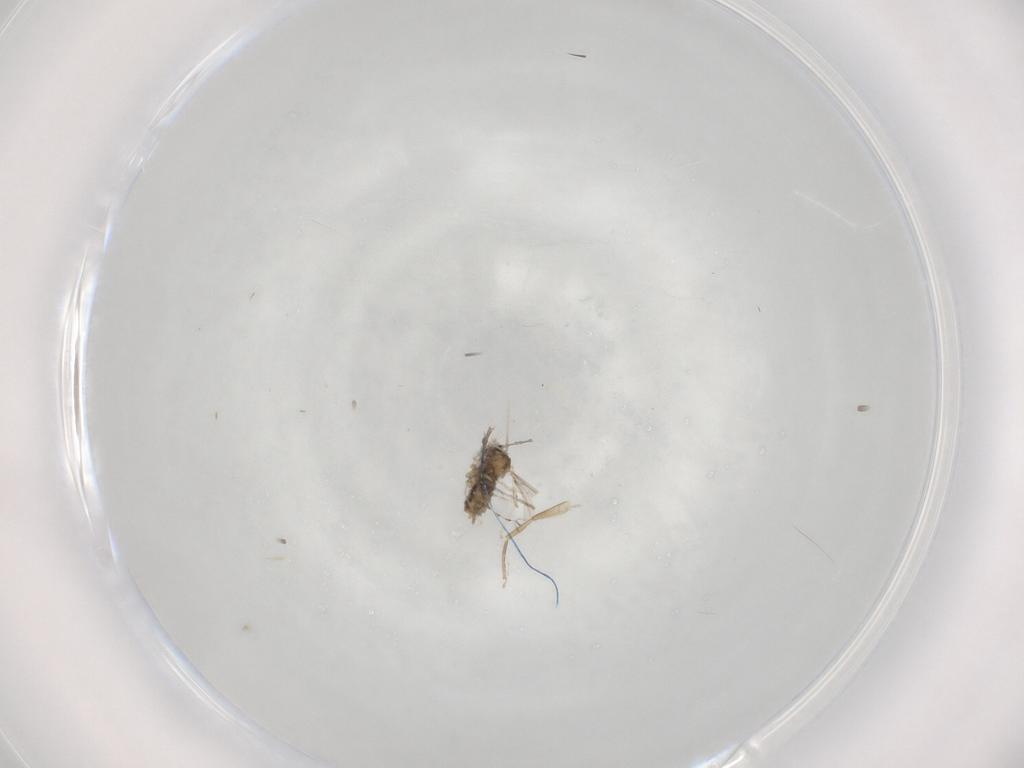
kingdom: Animalia
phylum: Arthropoda
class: Insecta
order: Diptera
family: Phoridae
